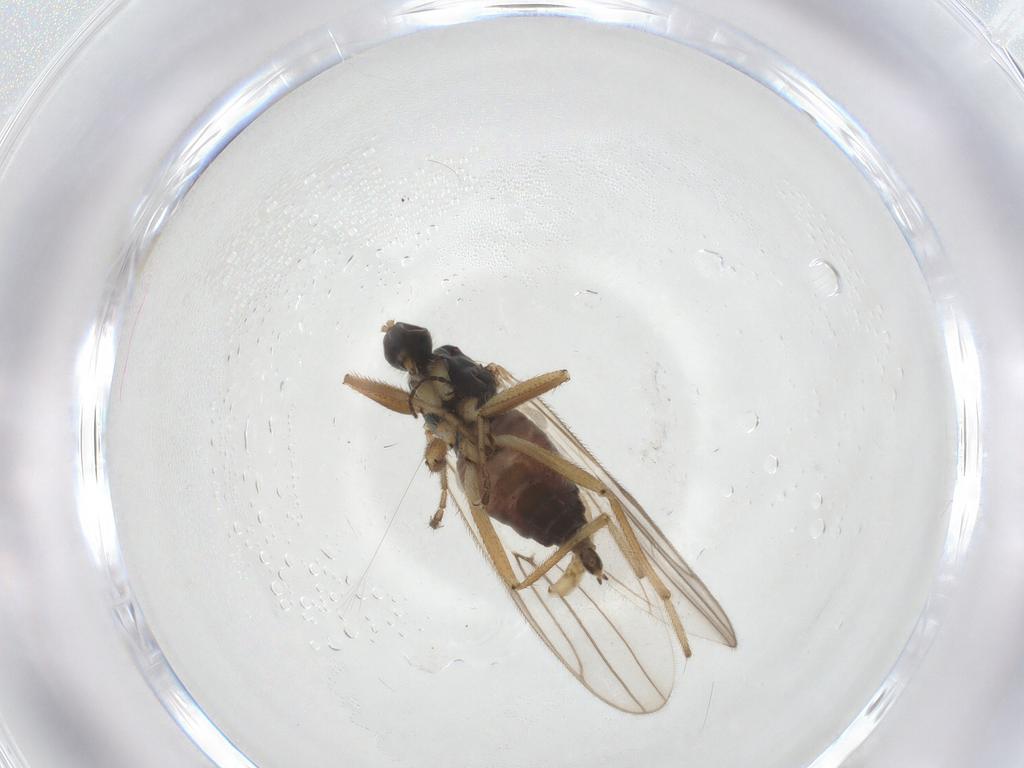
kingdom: Animalia
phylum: Arthropoda
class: Insecta
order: Diptera
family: Hybotidae
